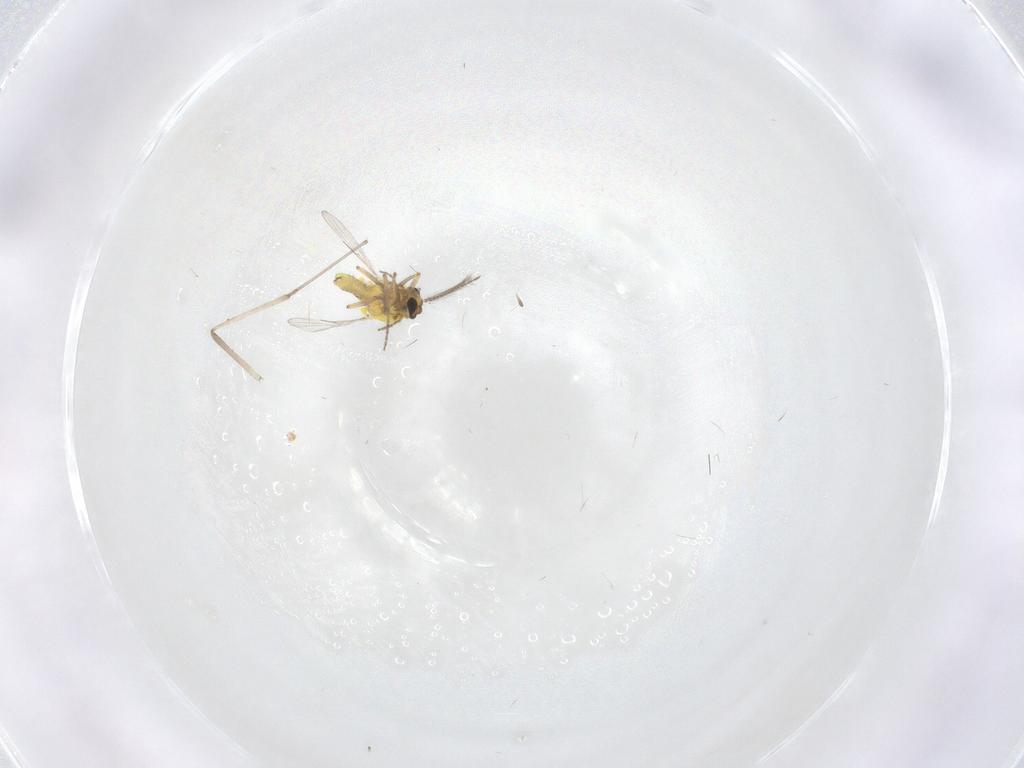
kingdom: Animalia
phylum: Arthropoda
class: Insecta
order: Diptera
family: Ceratopogonidae
